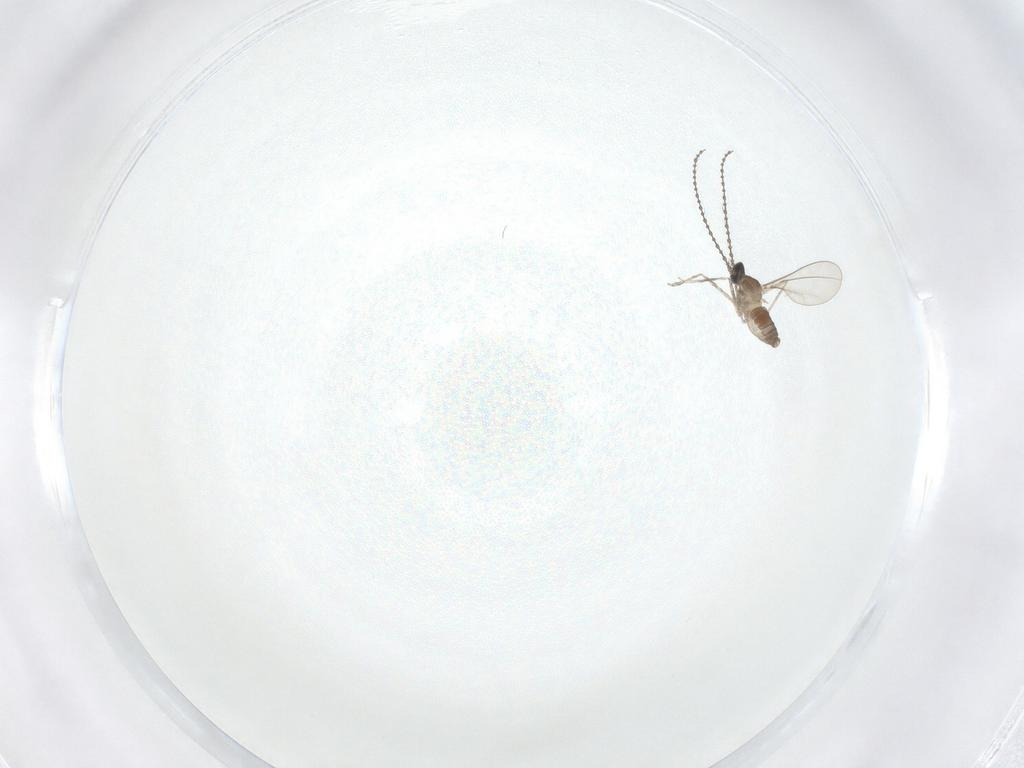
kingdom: Animalia
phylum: Arthropoda
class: Insecta
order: Diptera
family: Cecidomyiidae
